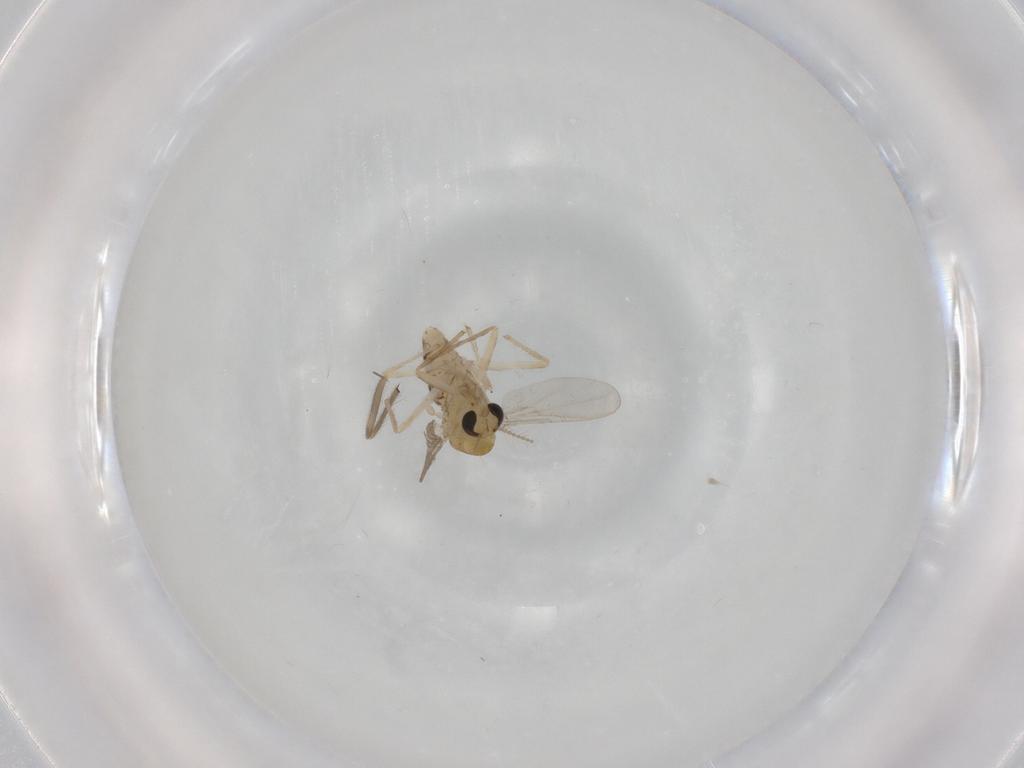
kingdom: Animalia
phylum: Arthropoda
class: Insecta
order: Diptera
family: Chironomidae
